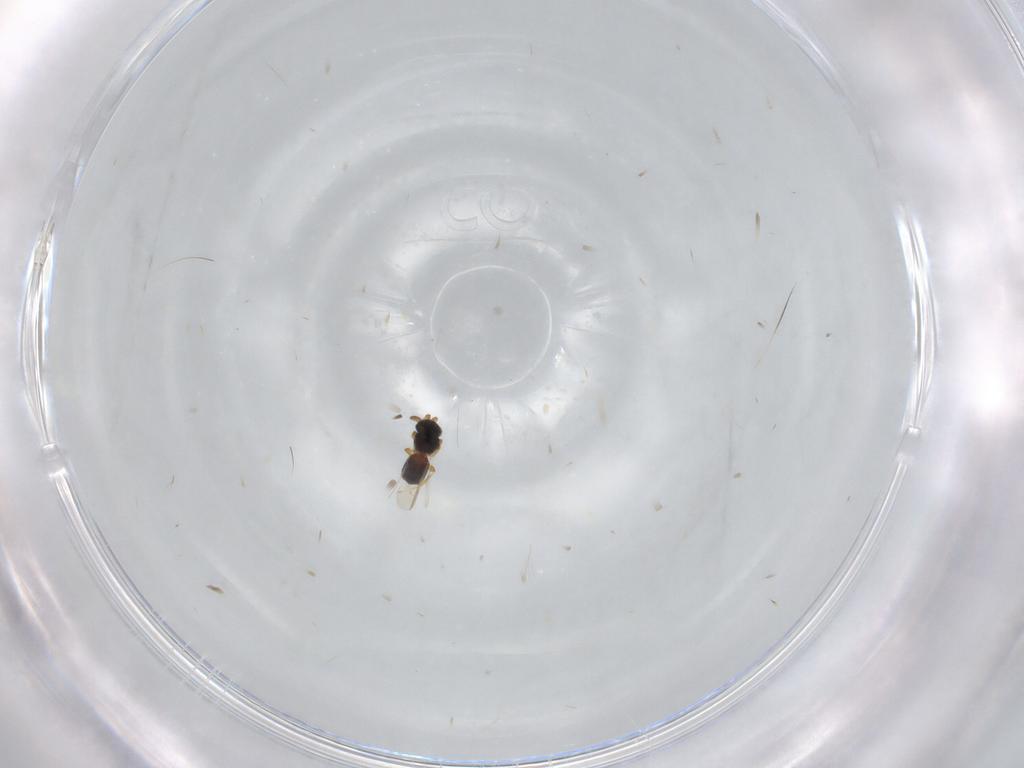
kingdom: Animalia
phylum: Arthropoda
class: Insecta
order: Hymenoptera
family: Platygastridae
